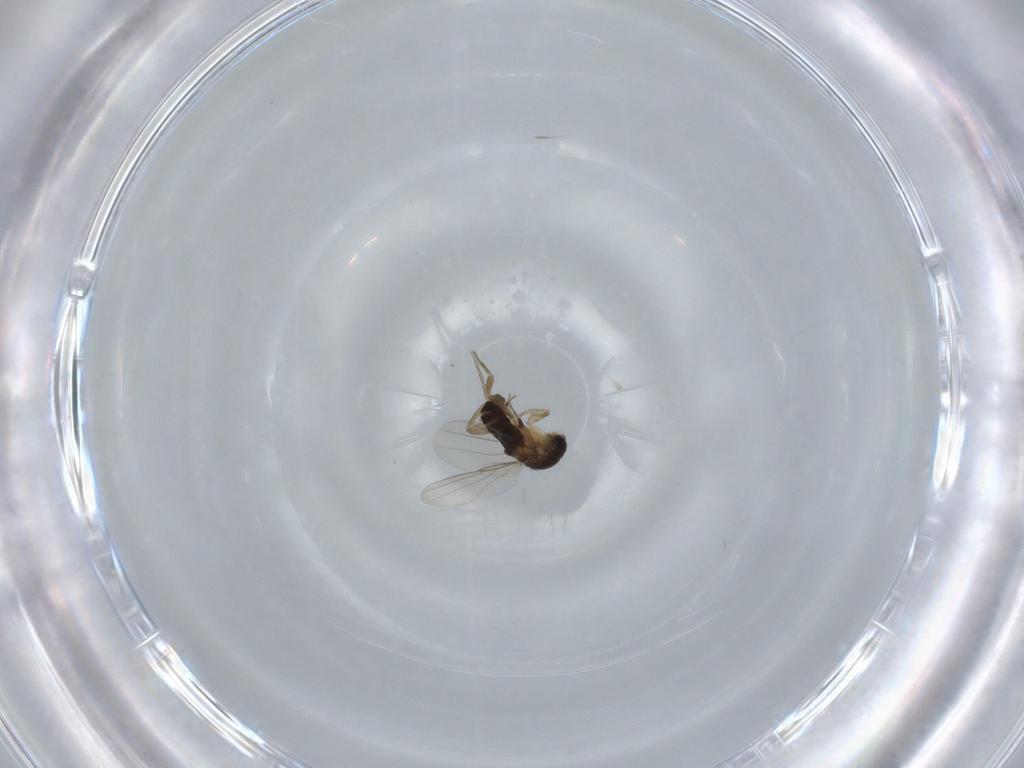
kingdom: Animalia
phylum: Arthropoda
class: Insecta
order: Diptera
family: Phoridae
